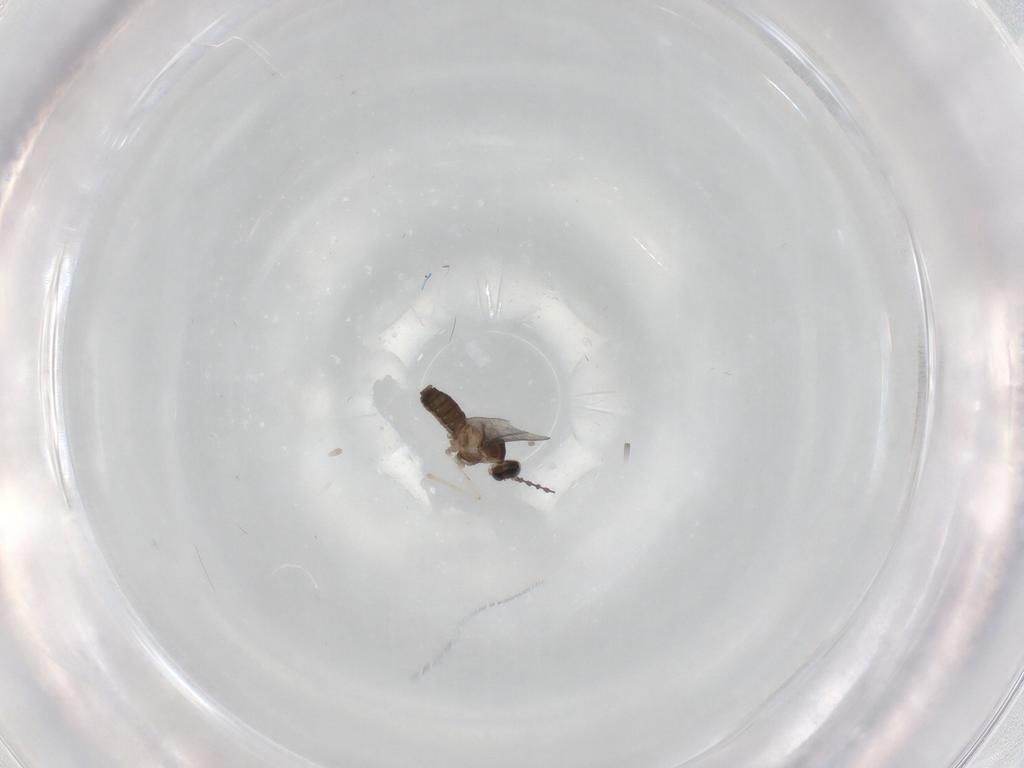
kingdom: Animalia
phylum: Arthropoda
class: Insecta
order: Diptera
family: Cecidomyiidae
